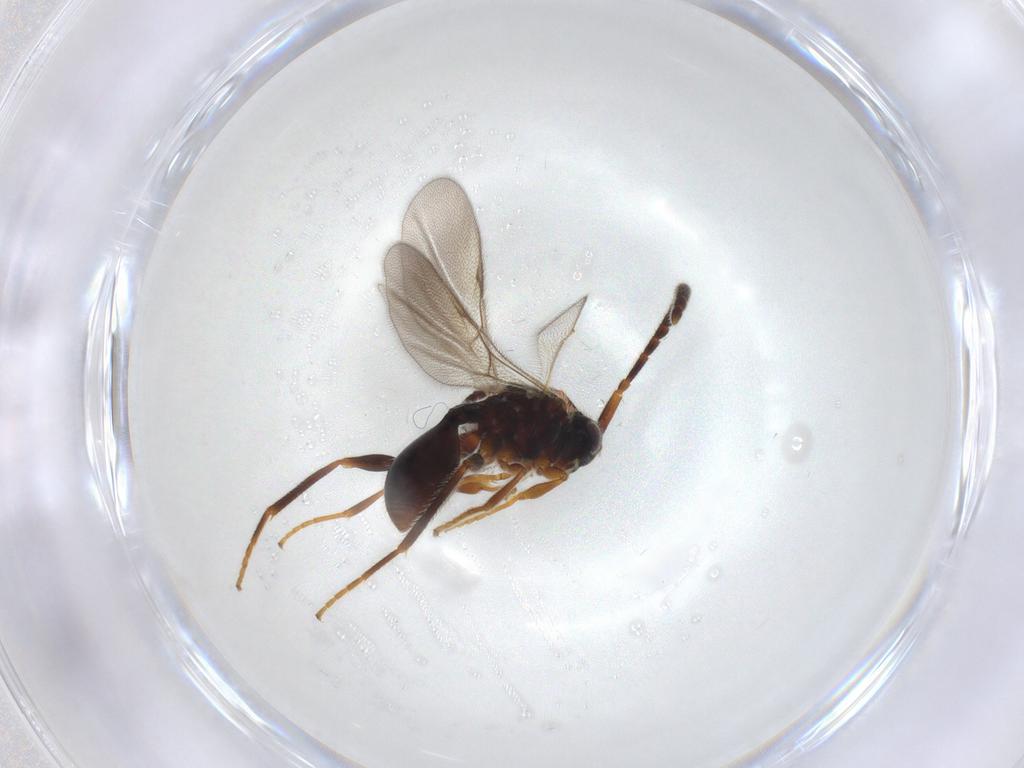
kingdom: Animalia
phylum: Arthropoda
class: Insecta
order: Hymenoptera
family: Diapriidae
